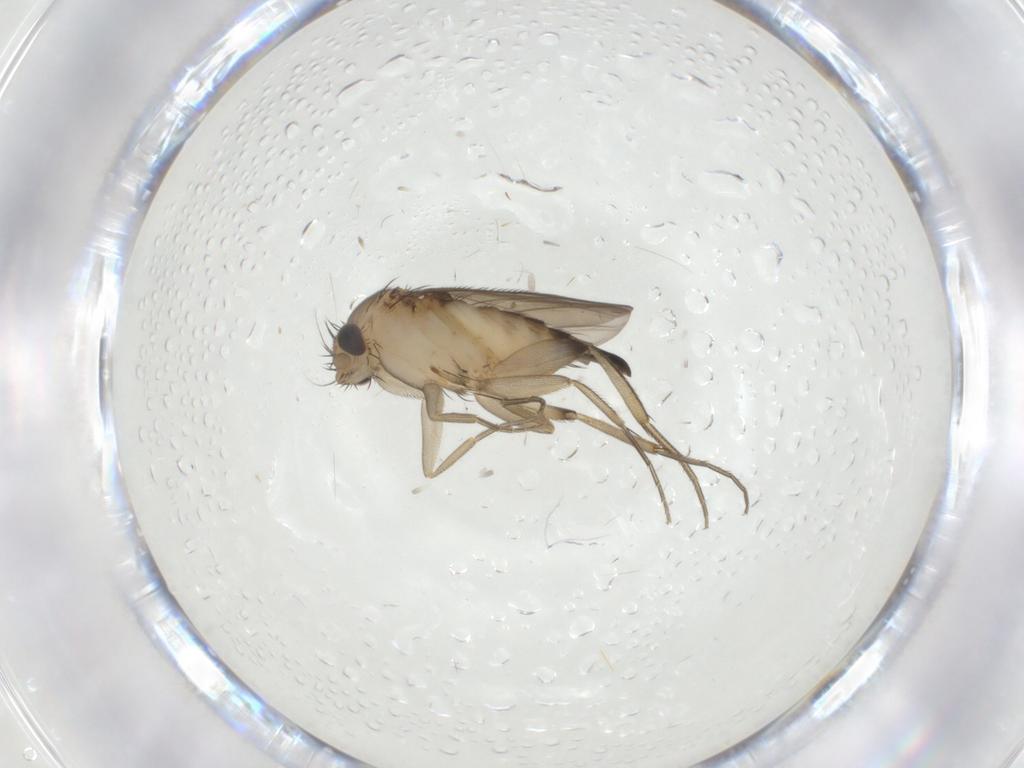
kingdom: Animalia
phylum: Arthropoda
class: Insecta
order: Diptera
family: Phoridae
